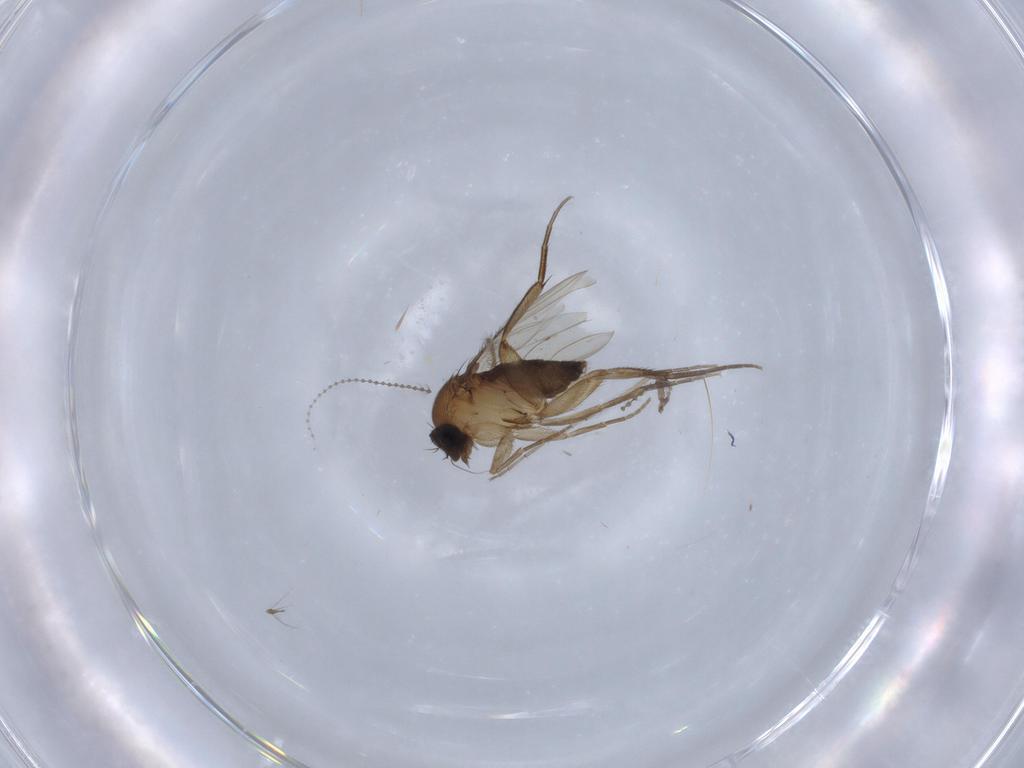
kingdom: Animalia
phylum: Arthropoda
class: Insecta
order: Diptera
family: Phoridae
